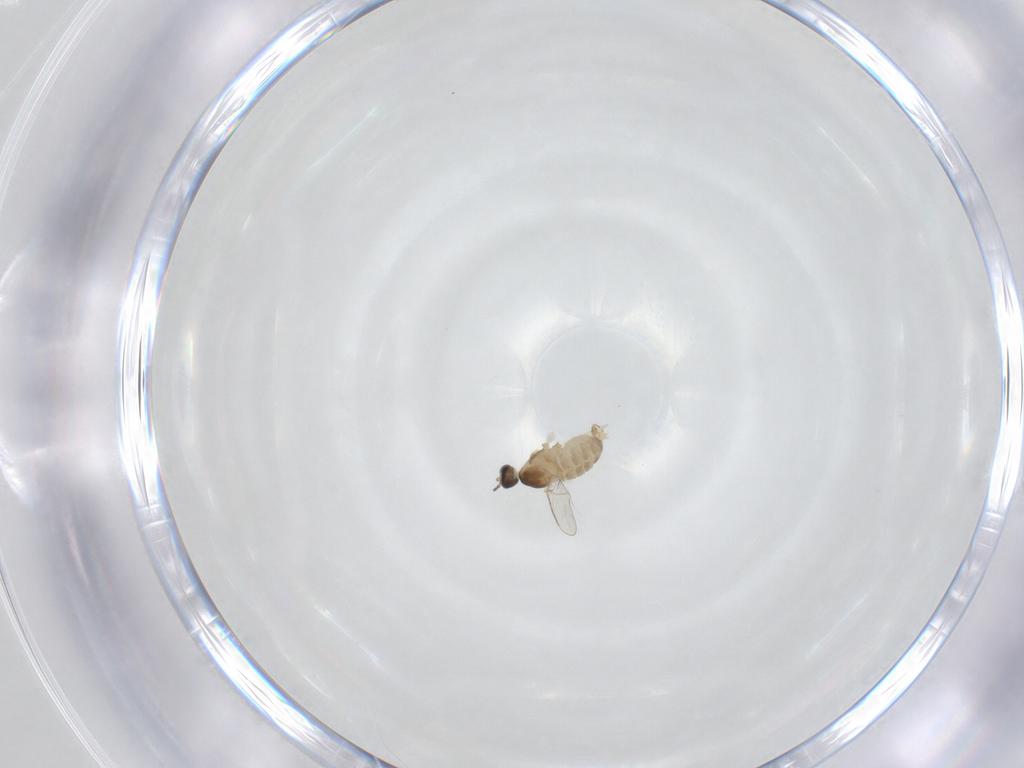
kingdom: Animalia
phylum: Arthropoda
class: Insecta
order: Diptera
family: Cecidomyiidae
